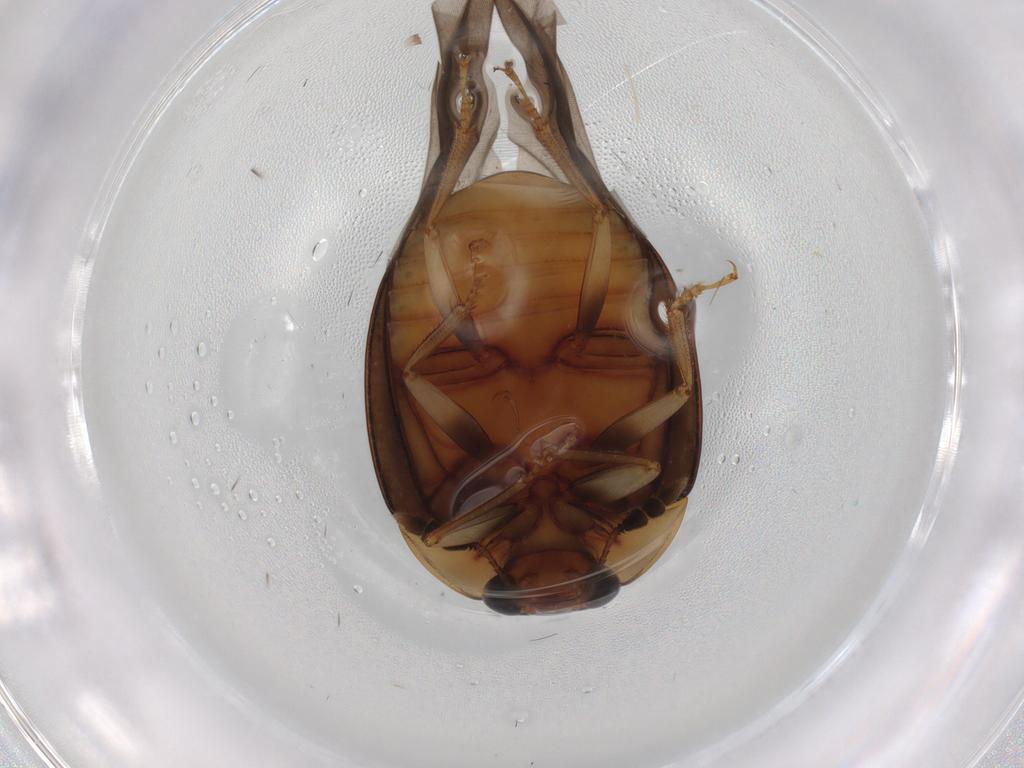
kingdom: Animalia
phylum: Arthropoda
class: Insecta
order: Coleoptera
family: Nitidulidae
